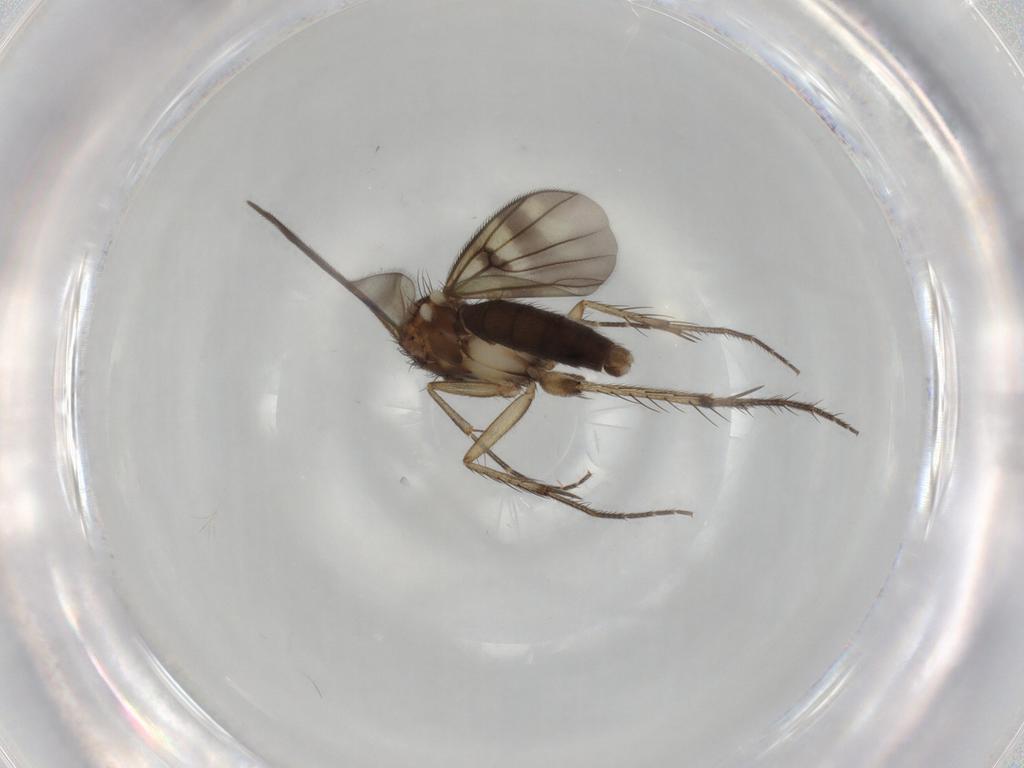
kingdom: Animalia
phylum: Arthropoda
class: Insecta
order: Diptera
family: Mycetophilidae
